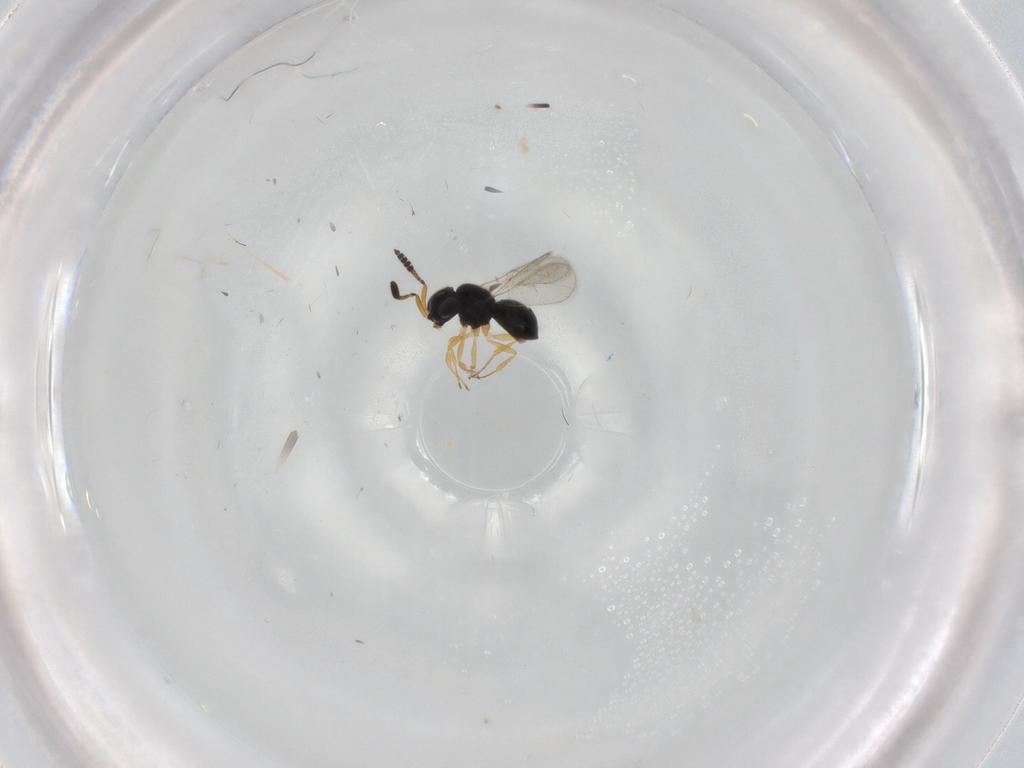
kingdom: Animalia
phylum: Arthropoda
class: Insecta
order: Hymenoptera
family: Scelionidae
